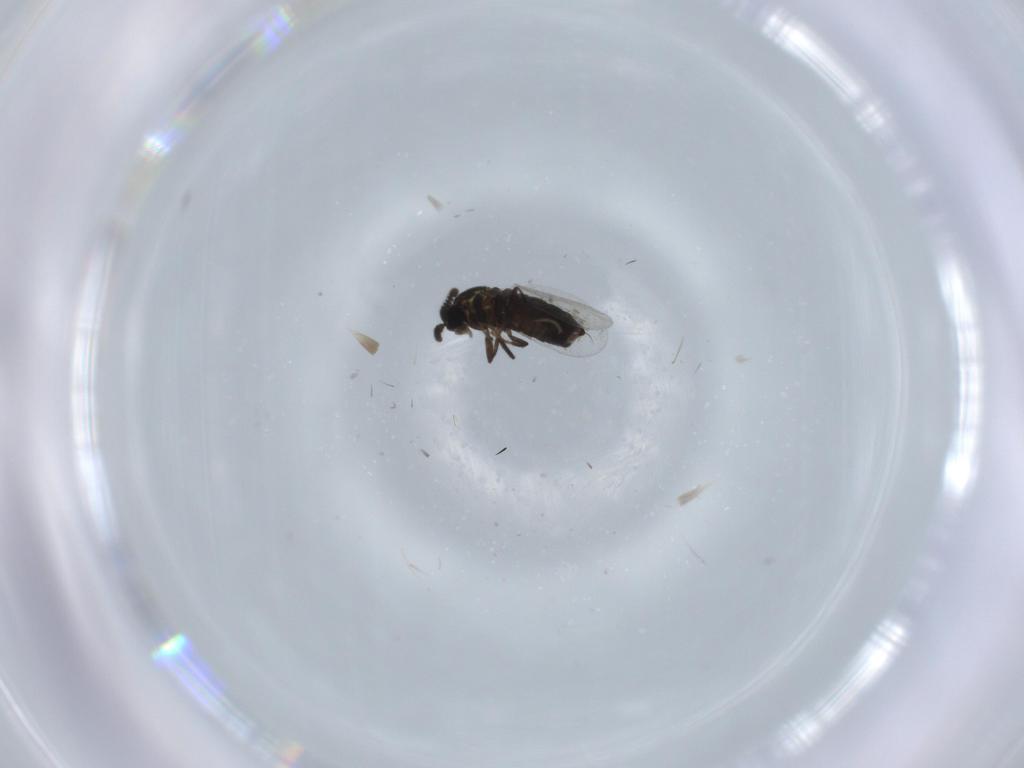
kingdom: Animalia
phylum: Arthropoda
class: Insecta
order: Diptera
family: Scatopsidae
